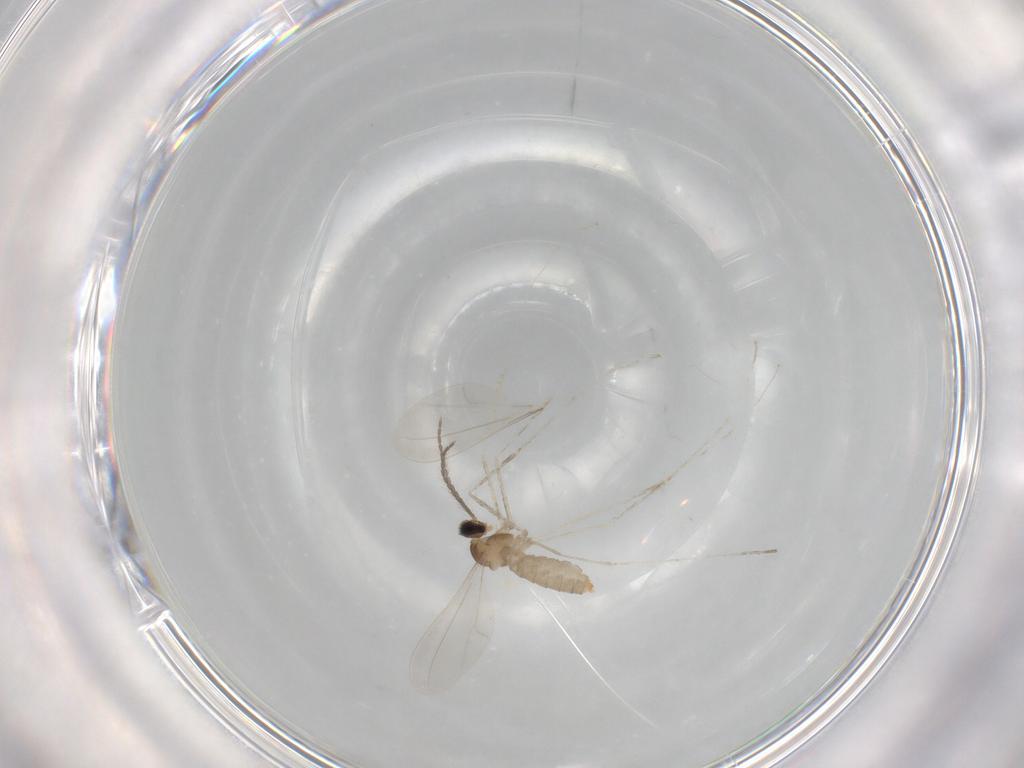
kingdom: Animalia
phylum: Arthropoda
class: Insecta
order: Diptera
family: Cecidomyiidae
